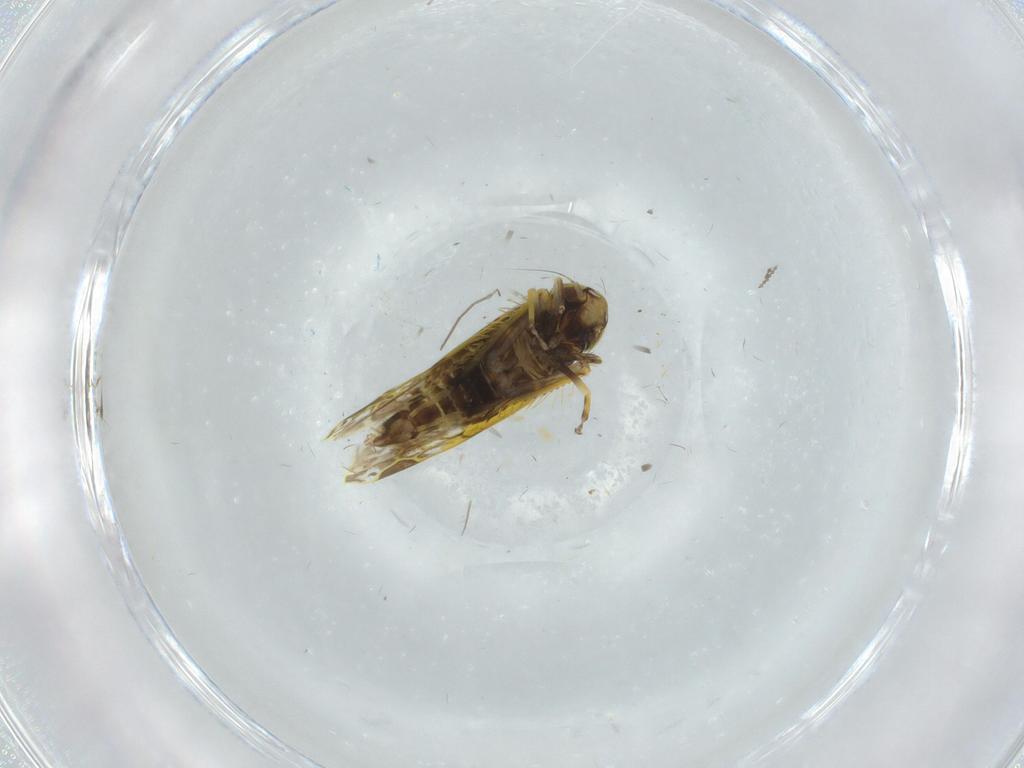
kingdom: Animalia
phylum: Arthropoda
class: Insecta
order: Hemiptera
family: Cicadellidae
